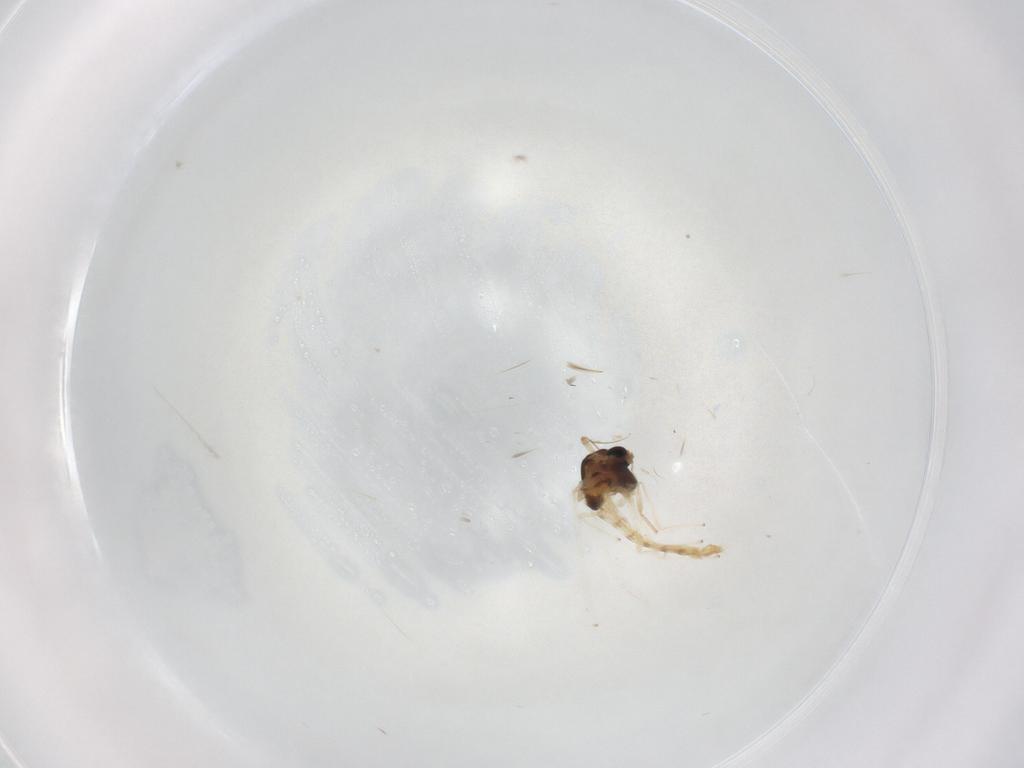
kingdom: Animalia
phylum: Arthropoda
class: Insecta
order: Diptera
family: Chironomidae
